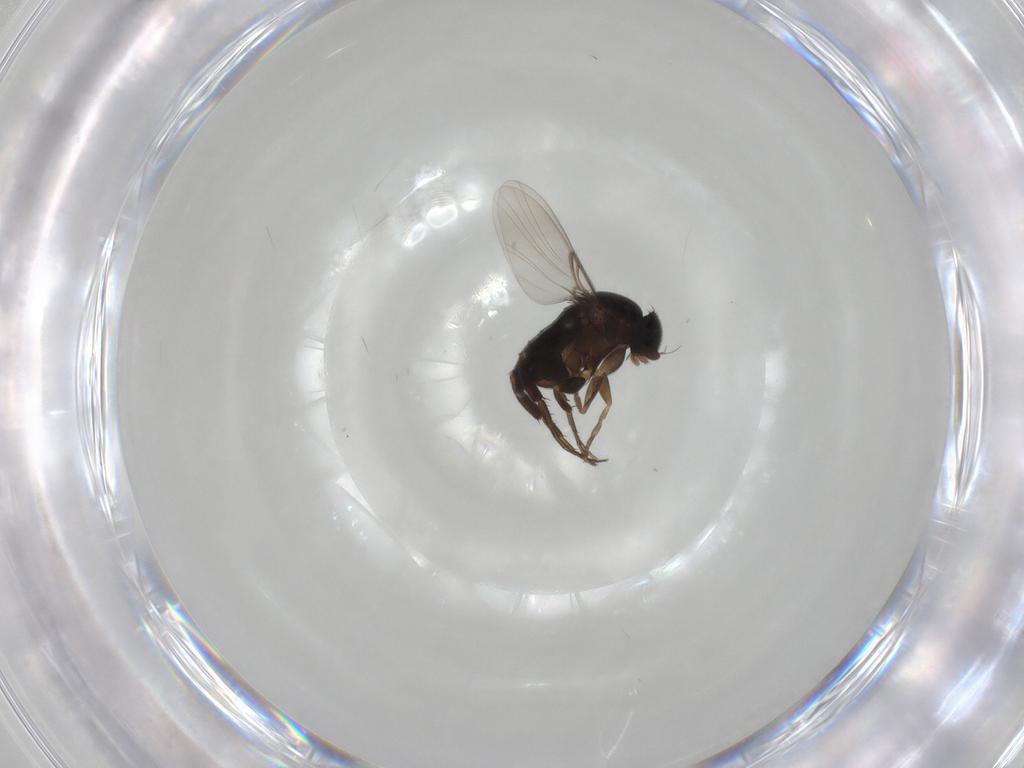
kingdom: Animalia
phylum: Arthropoda
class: Insecta
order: Diptera
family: Phoridae
